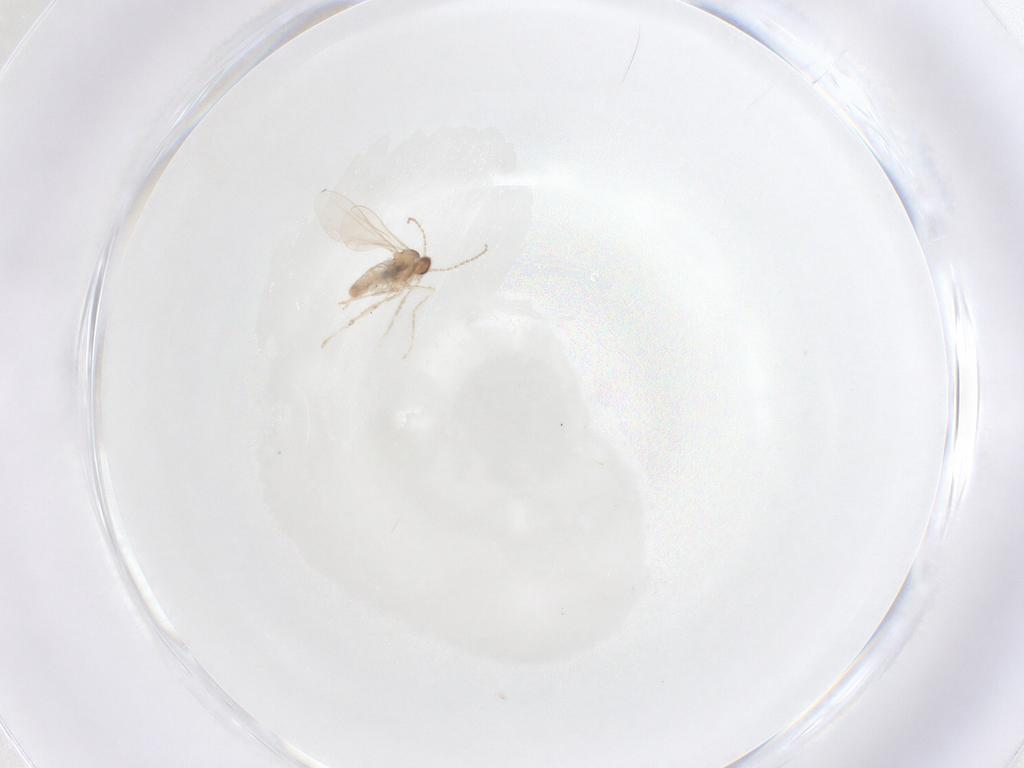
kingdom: Animalia
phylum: Arthropoda
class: Insecta
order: Diptera
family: Cecidomyiidae
